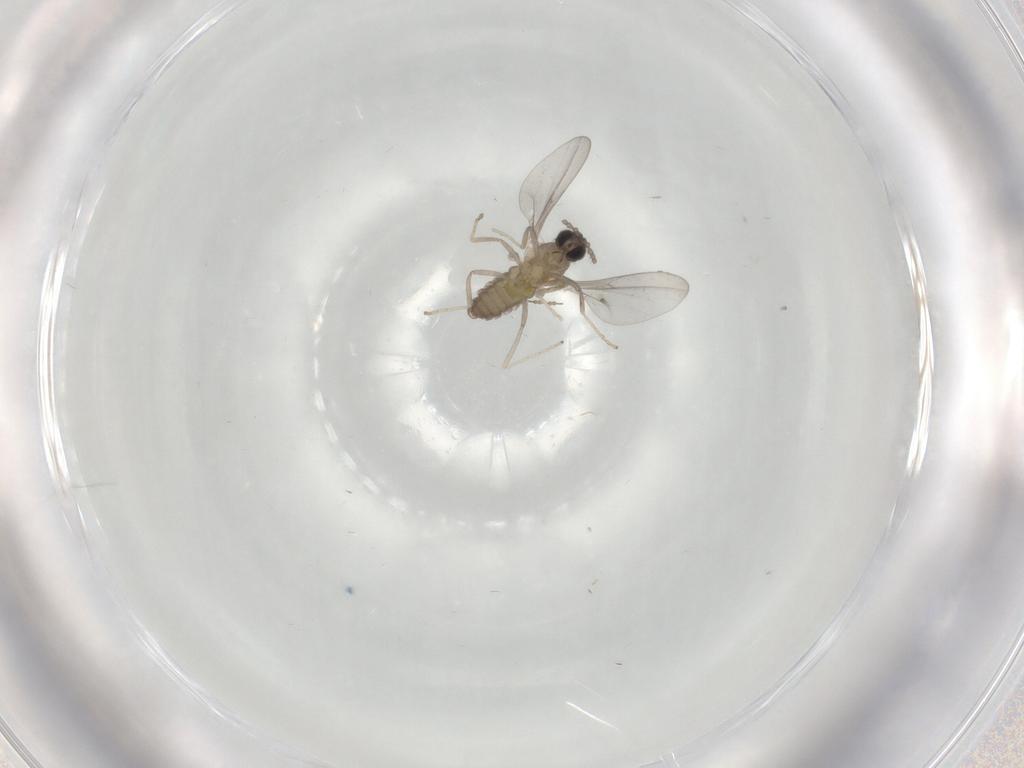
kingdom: Animalia
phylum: Arthropoda
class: Insecta
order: Diptera
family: Cecidomyiidae
